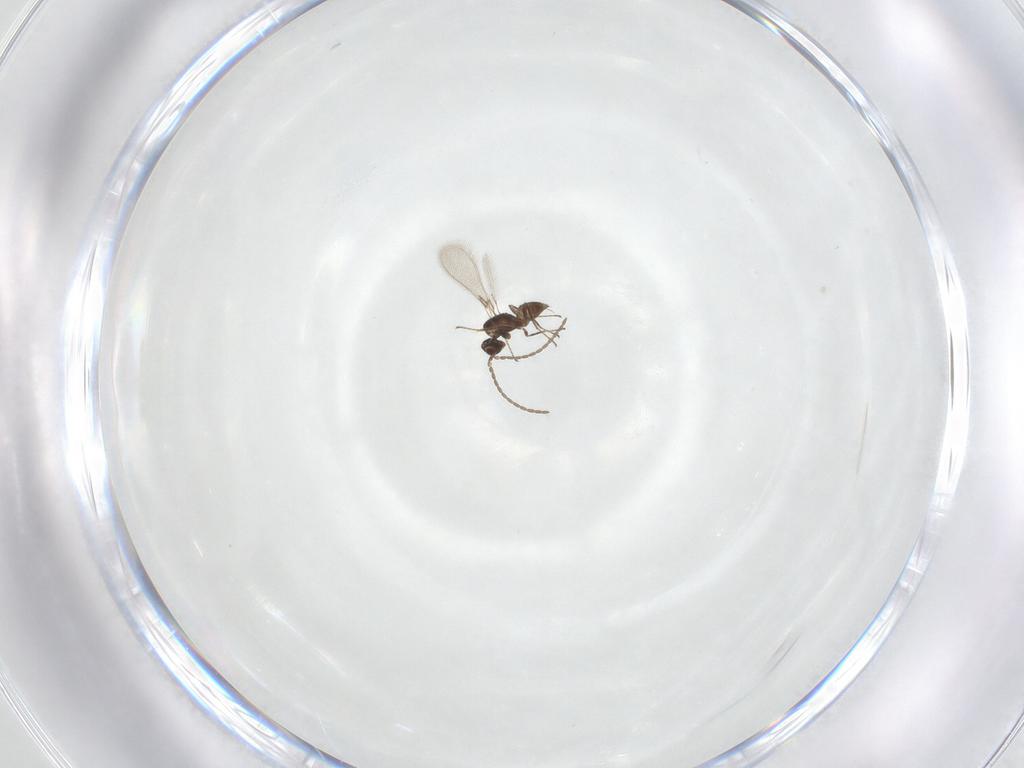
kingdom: Animalia
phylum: Arthropoda
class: Insecta
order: Hymenoptera
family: Mymaridae
